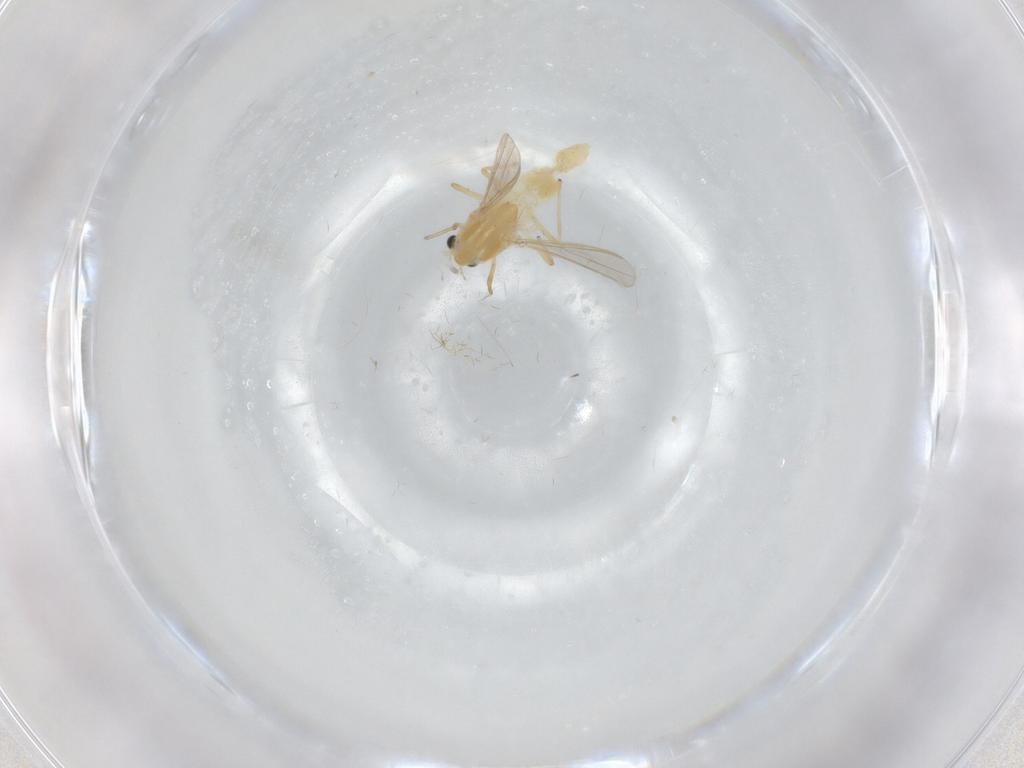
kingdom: Animalia
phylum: Arthropoda
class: Insecta
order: Diptera
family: Chironomidae
